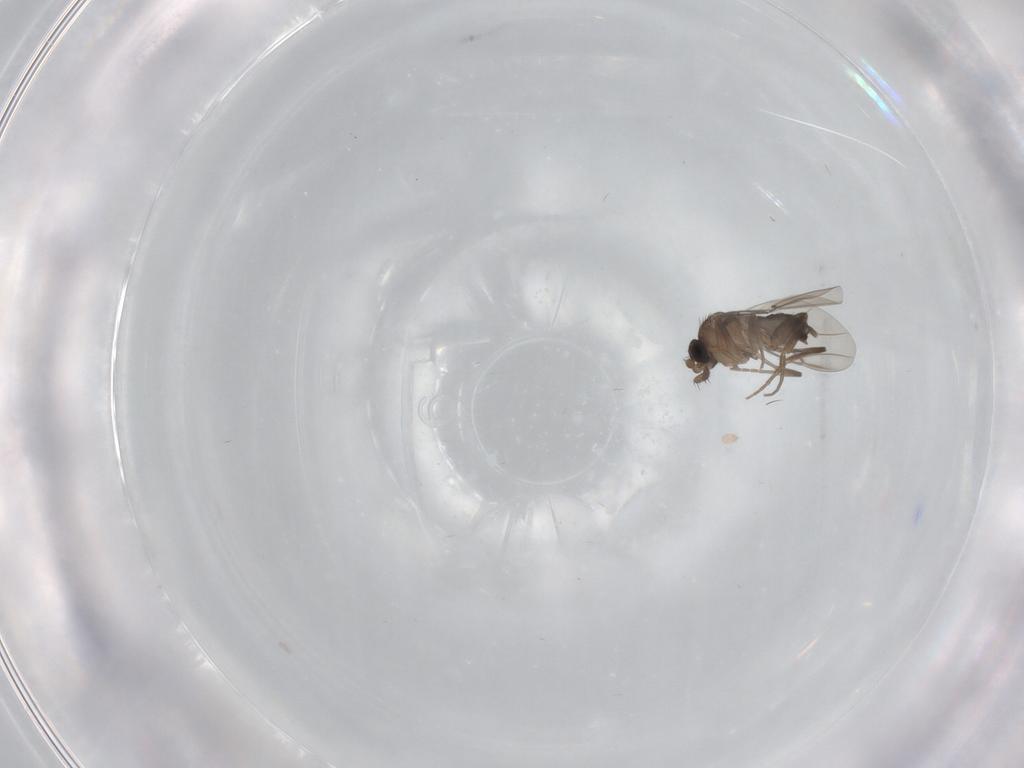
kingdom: Animalia
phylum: Arthropoda
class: Insecta
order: Diptera
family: Phoridae
